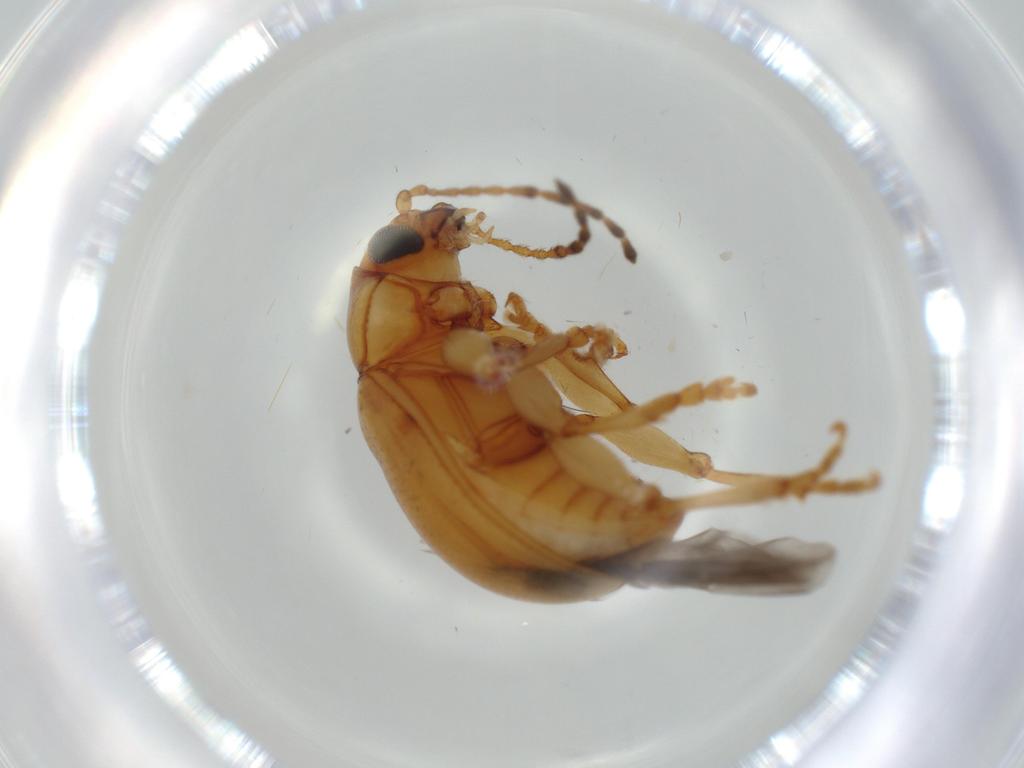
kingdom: Animalia
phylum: Arthropoda
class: Insecta
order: Coleoptera
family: Chrysomelidae
